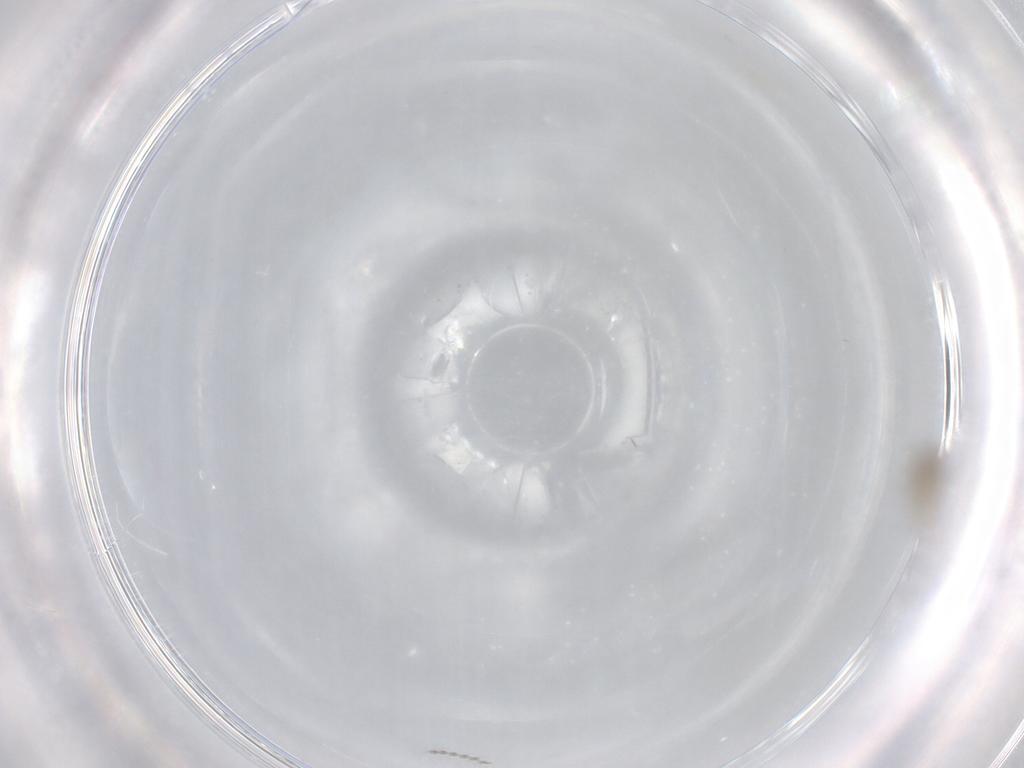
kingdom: Animalia
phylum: Arthropoda
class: Insecta
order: Diptera
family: Cecidomyiidae
